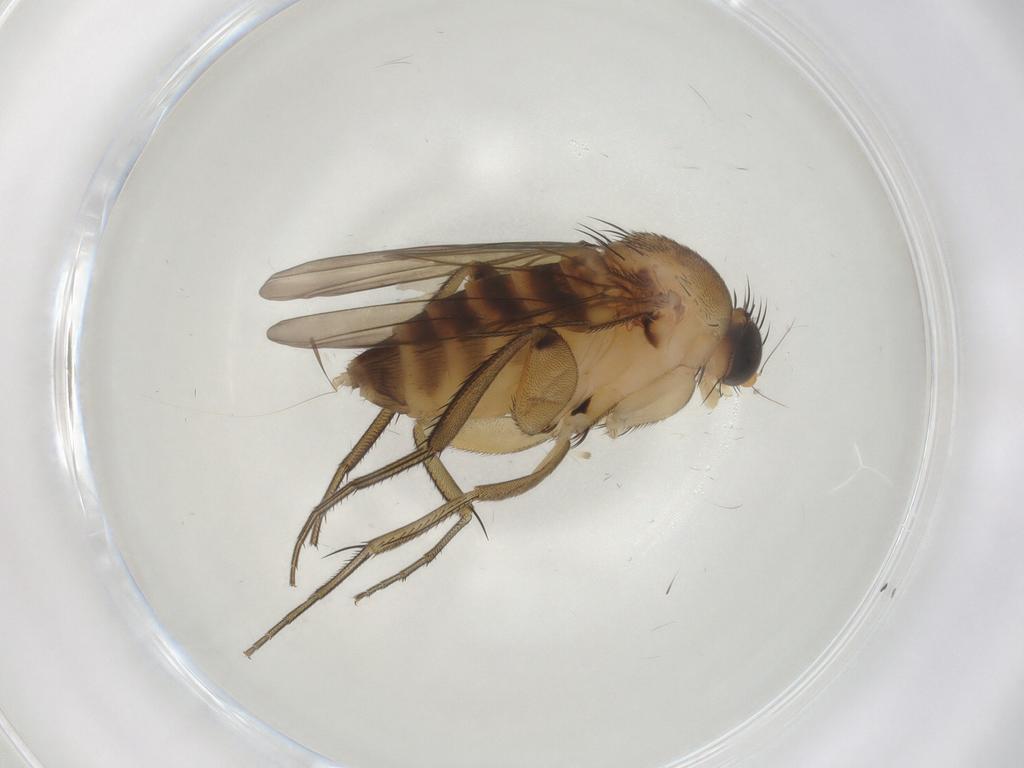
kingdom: Animalia
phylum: Arthropoda
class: Insecta
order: Diptera
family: Phoridae
